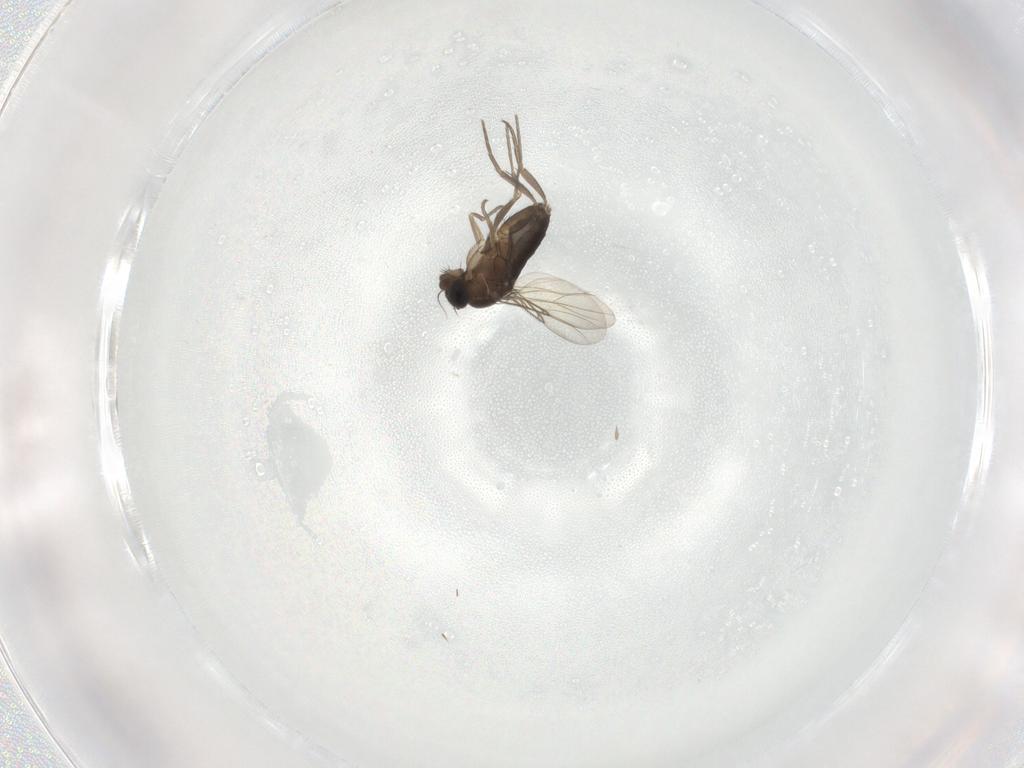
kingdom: Animalia
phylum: Arthropoda
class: Insecta
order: Diptera
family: Phoridae
